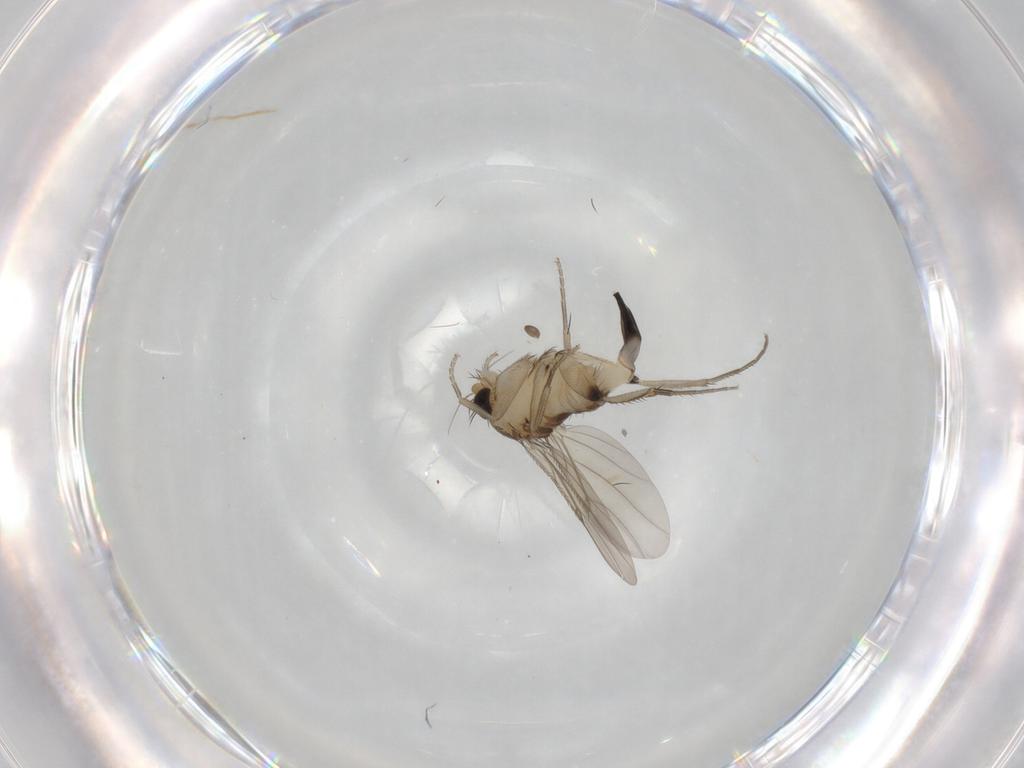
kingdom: Animalia
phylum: Arthropoda
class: Insecta
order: Diptera
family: Phoridae
